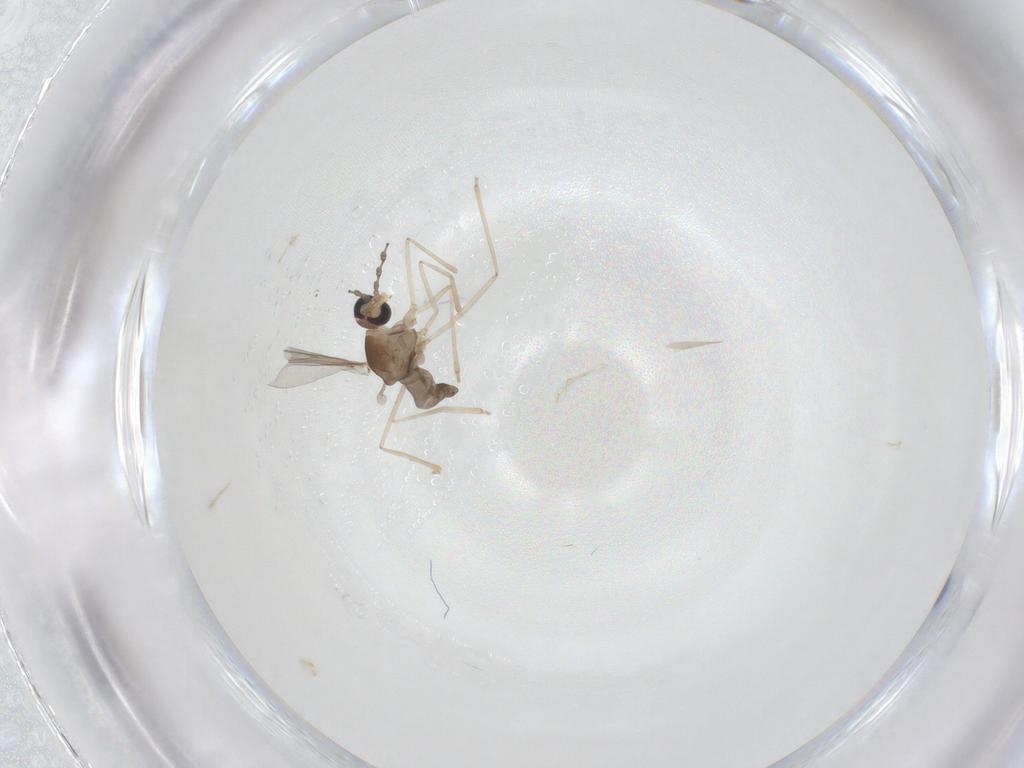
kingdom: Animalia
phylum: Arthropoda
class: Insecta
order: Diptera
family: Cecidomyiidae
